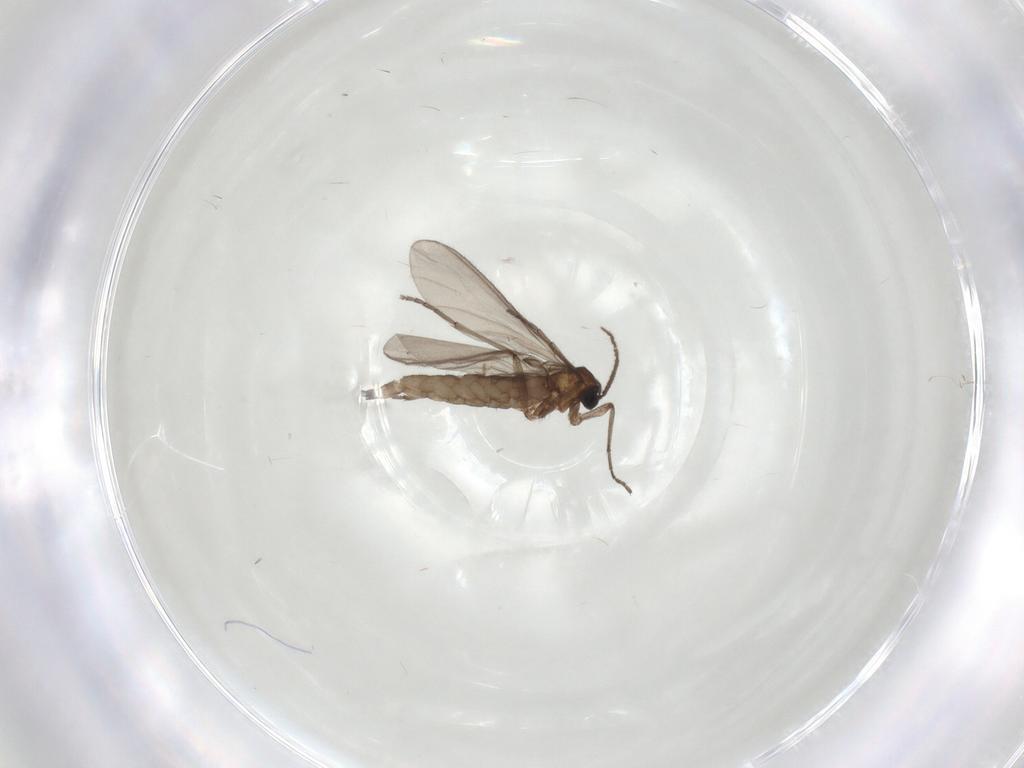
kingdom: Animalia
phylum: Arthropoda
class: Insecta
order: Diptera
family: Sciaridae
